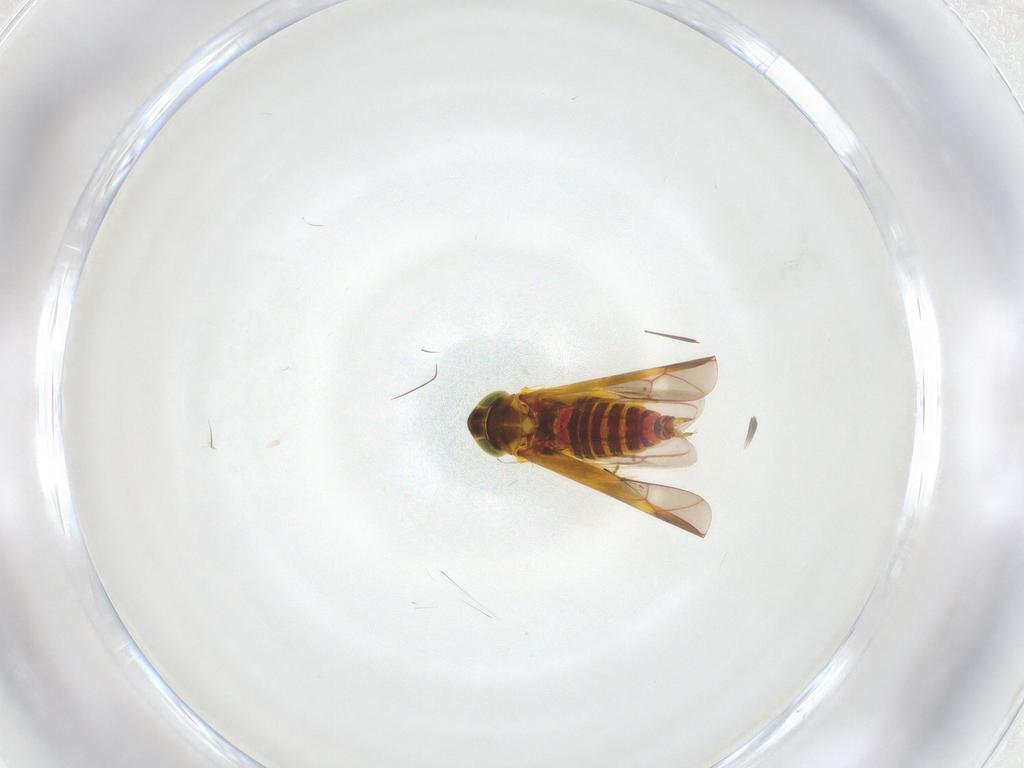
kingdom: Animalia
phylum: Arthropoda
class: Insecta
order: Hemiptera
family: Cicadellidae
